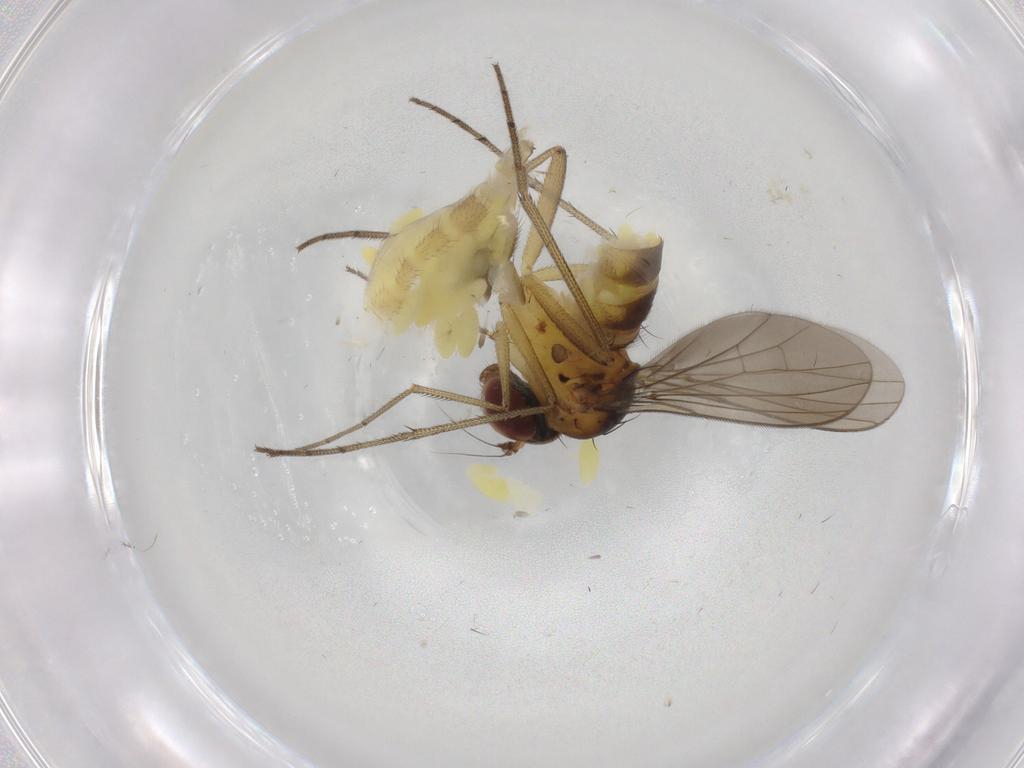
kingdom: Animalia
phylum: Arthropoda
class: Insecta
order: Diptera
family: Dolichopodidae
